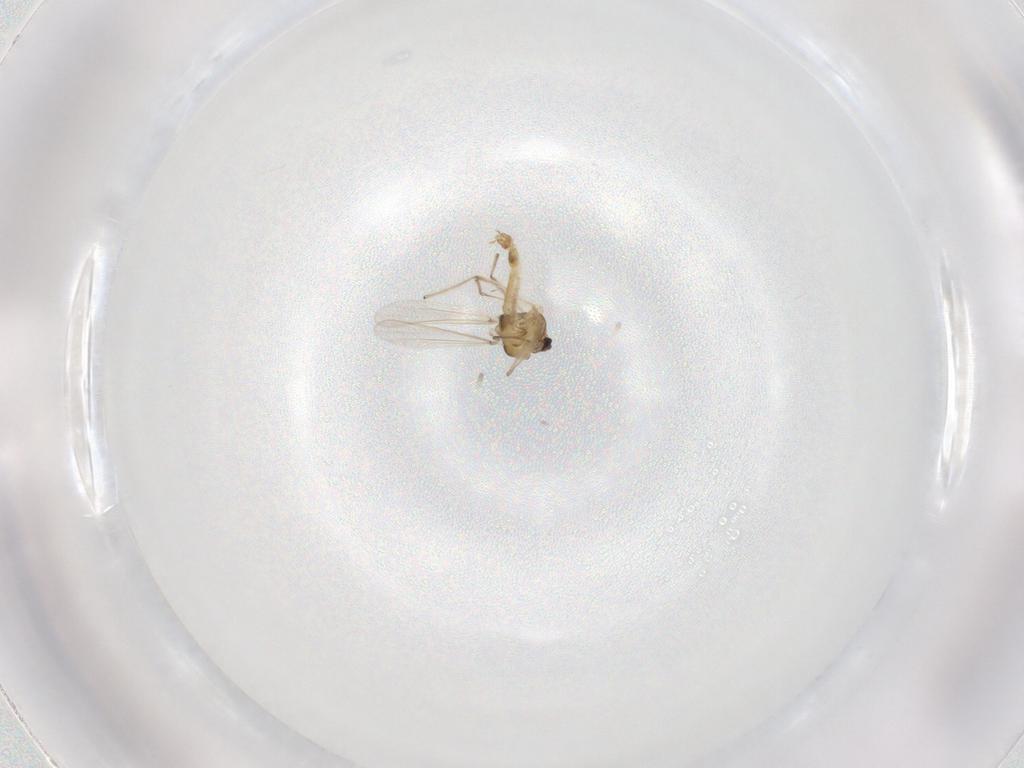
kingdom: Animalia
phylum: Arthropoda
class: Insecta
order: Diptera
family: Chironomidae
